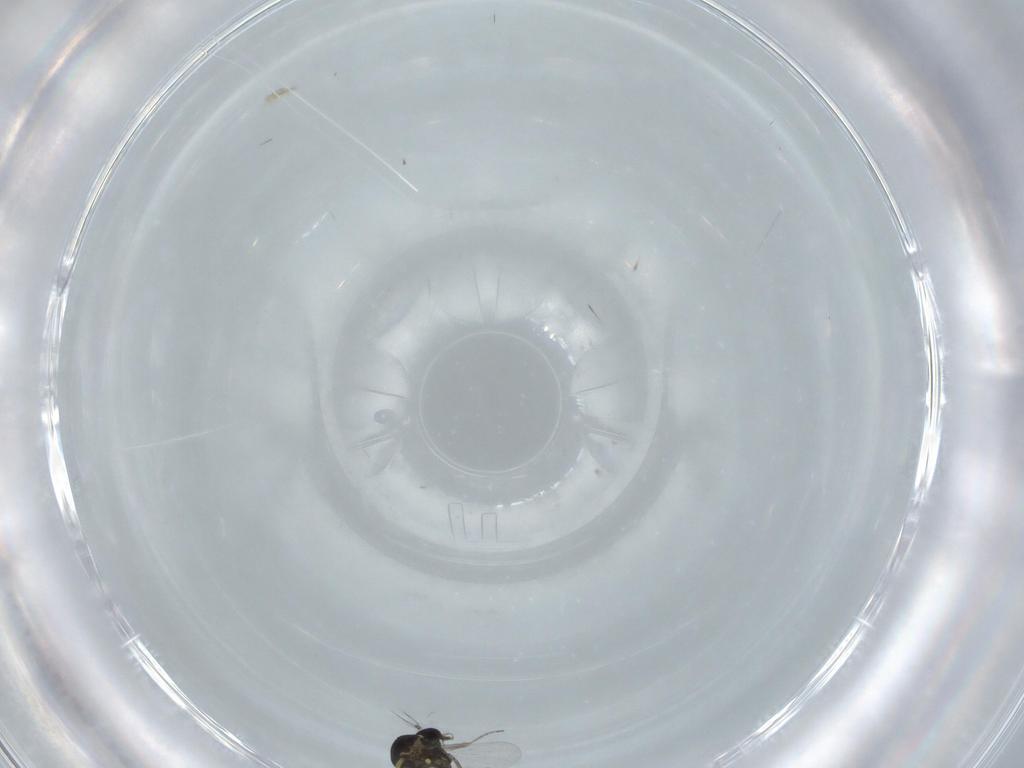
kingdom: Animalia
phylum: Arthropoda
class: Insecta
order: Diptera
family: Ceratopogonidae
